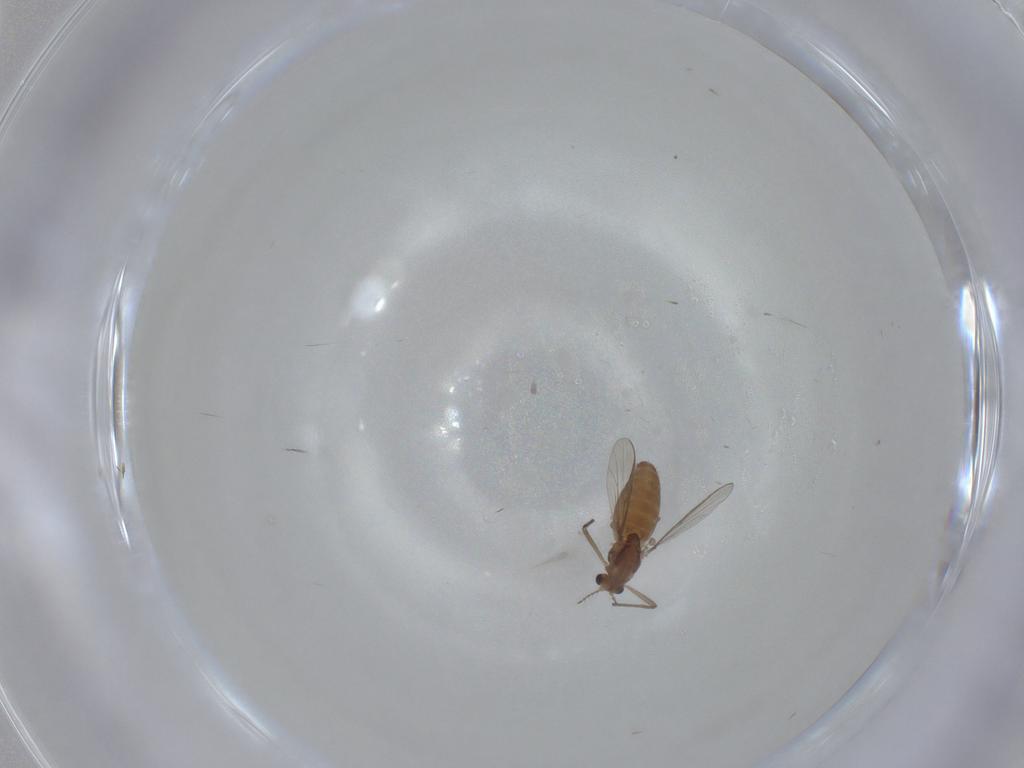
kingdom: Animalia
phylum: Arthropoda
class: Insecta
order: Diptera
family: Chironomidae
